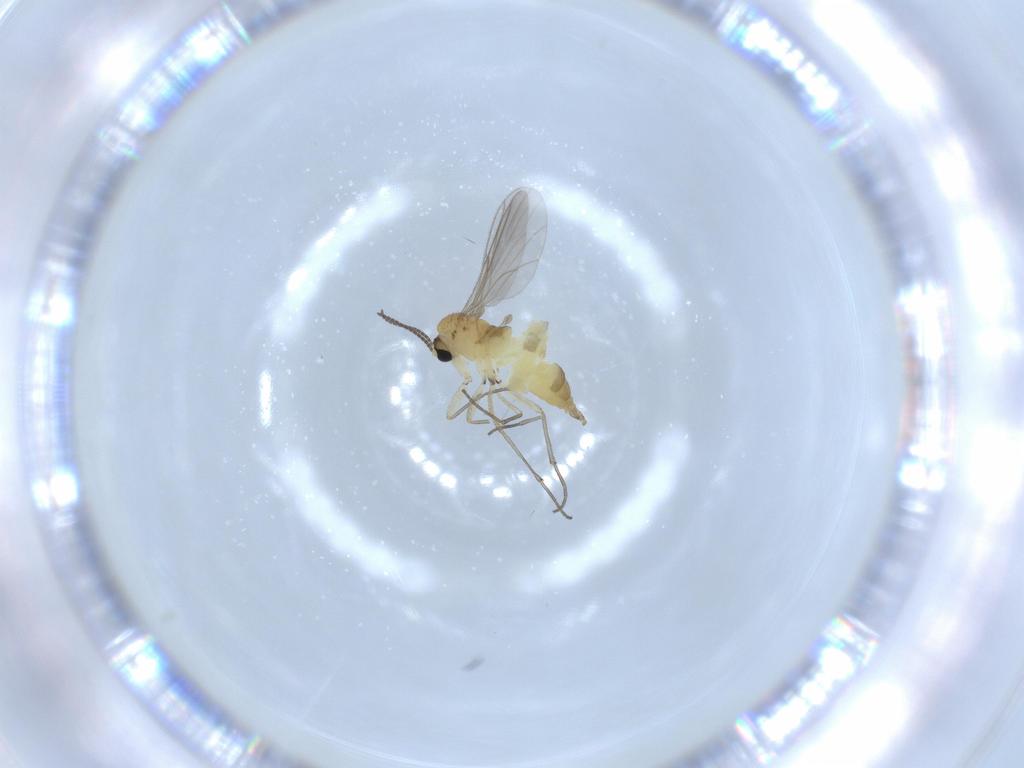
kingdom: Animalia
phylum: Arthropoda
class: Insecta
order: Diptera
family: Sciaridae
